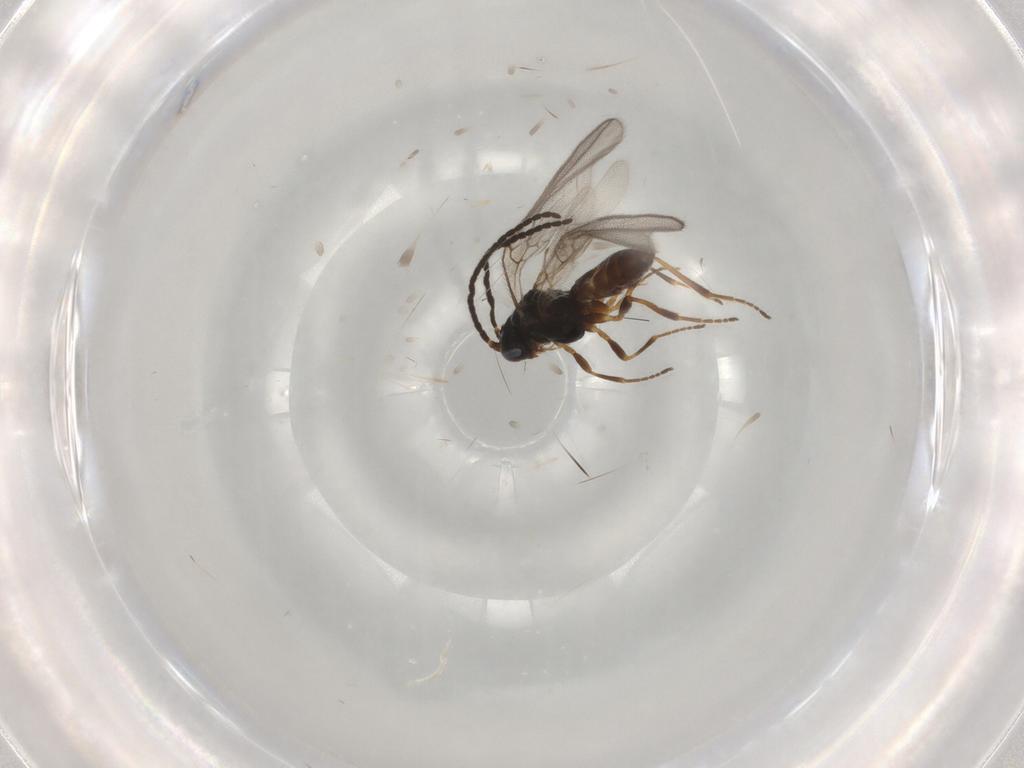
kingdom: Animalia
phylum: Arthropoda
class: Insecta
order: Hymenoptera
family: Braconidae
